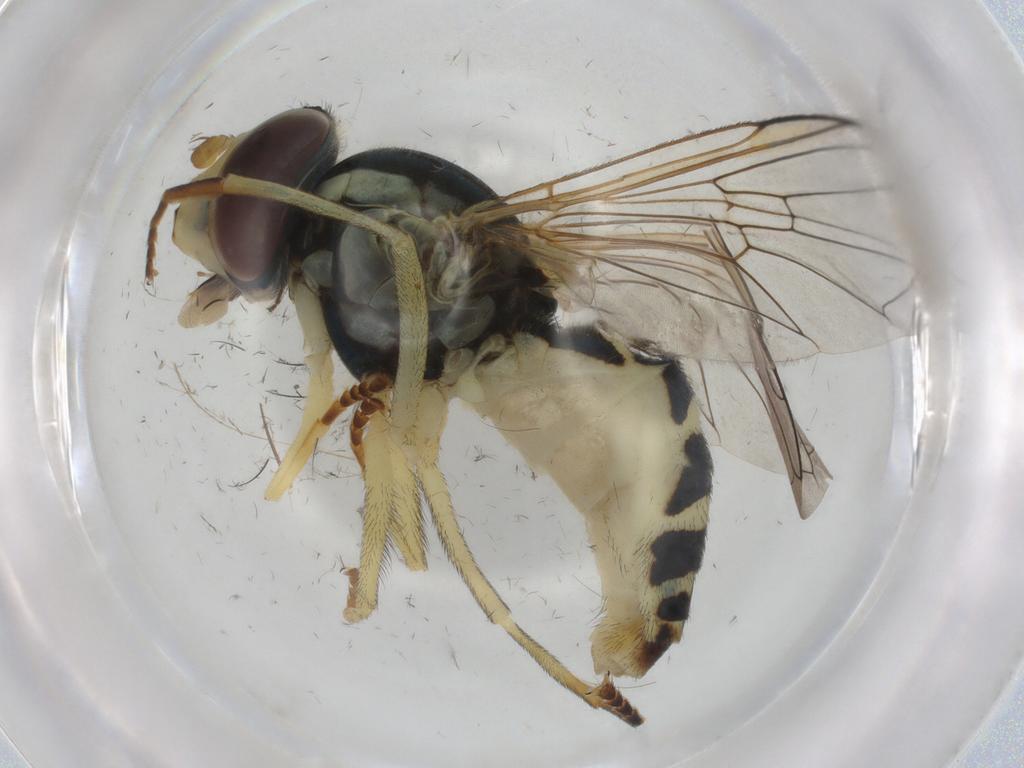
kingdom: Animalia
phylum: Arthropoda
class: Insecta
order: Diptera
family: Syrphidae
